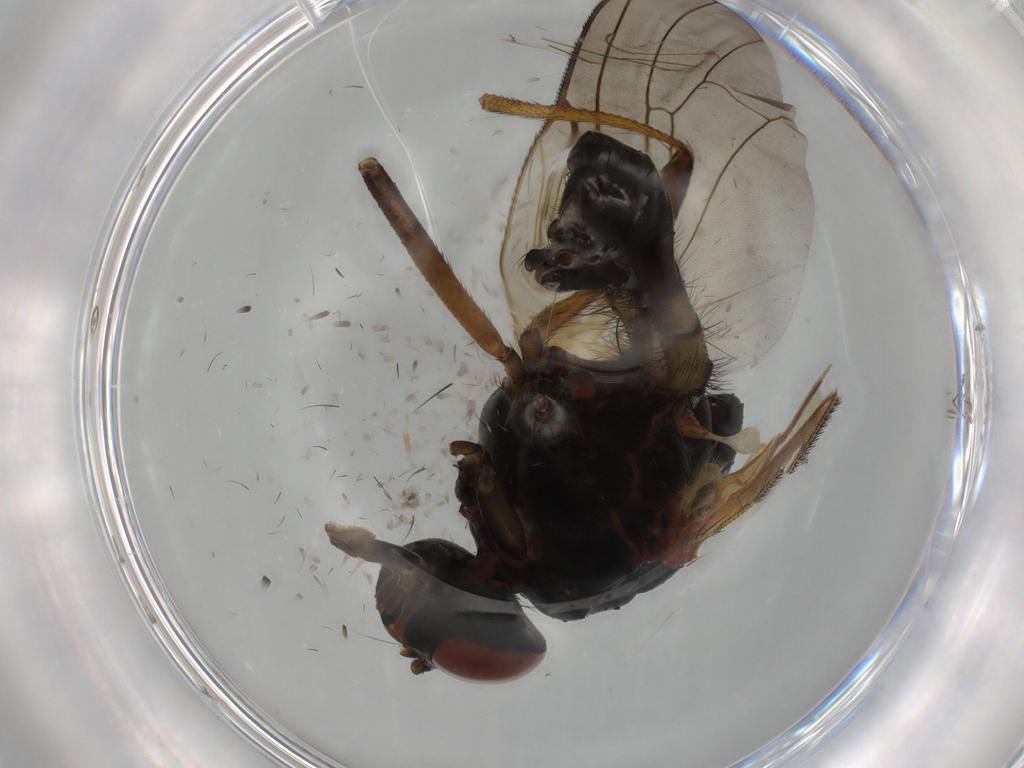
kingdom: Animalia
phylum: Arthropoda
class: Insecta
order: Diptera
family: Anthomyiidae
